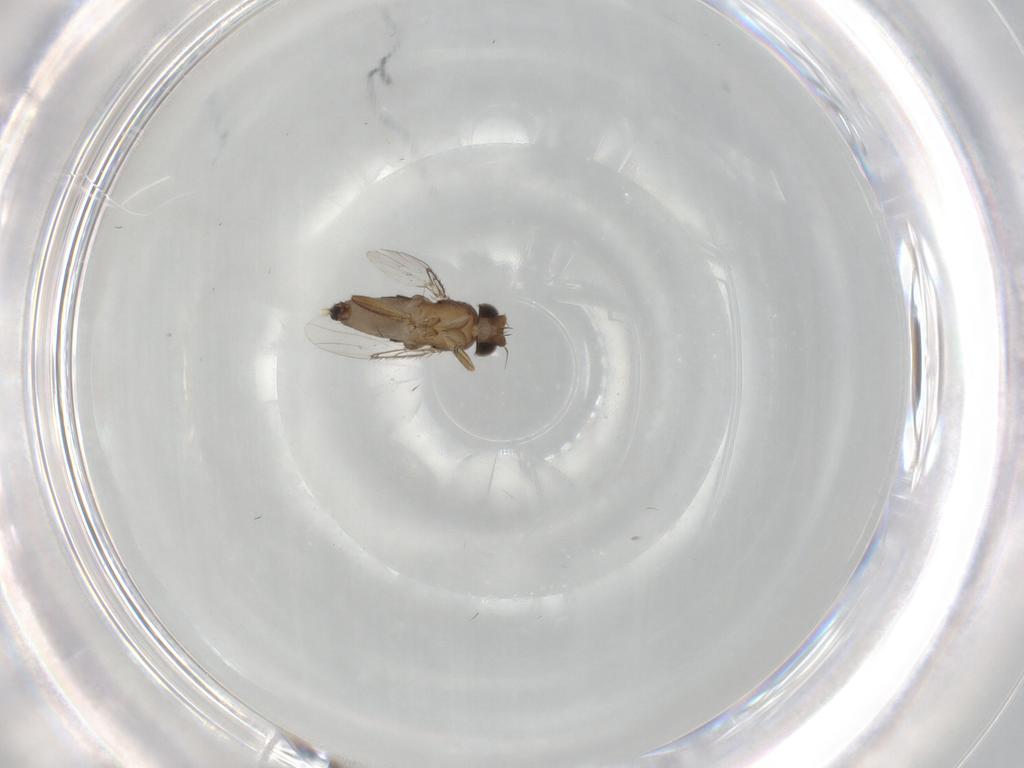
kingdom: Animalia
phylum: Arthropoda
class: Insecta
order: Diptera
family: Phoridae
